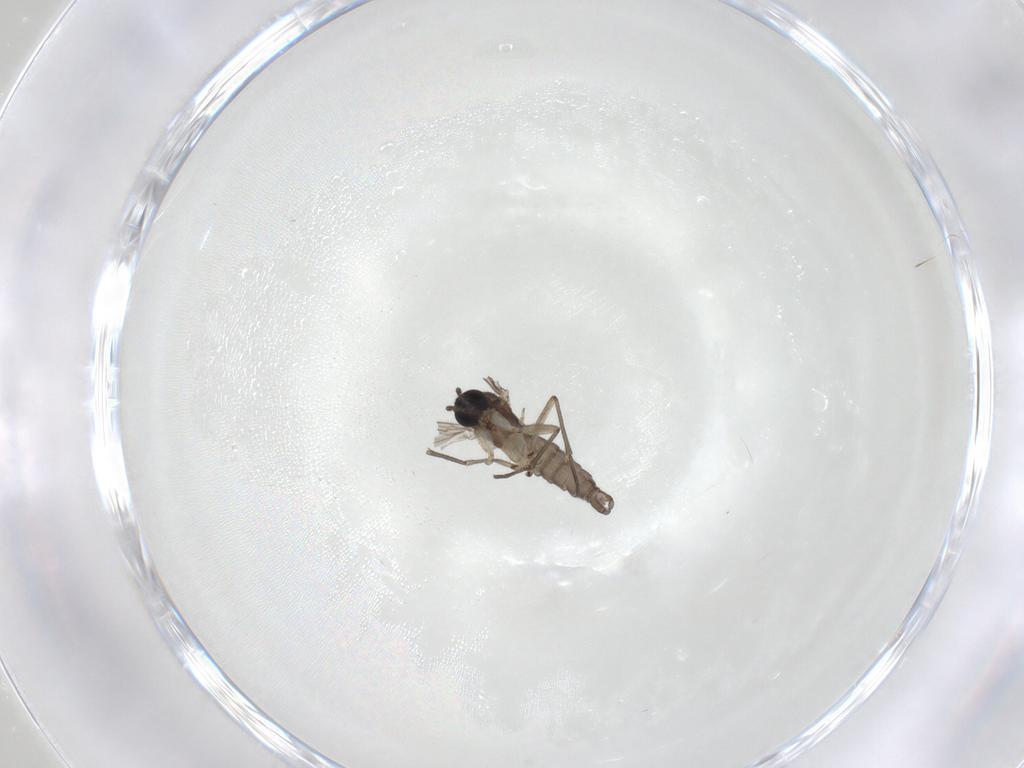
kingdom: Animalia
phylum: Arthropoda
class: Insecta
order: Diptera
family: Sciaridae
